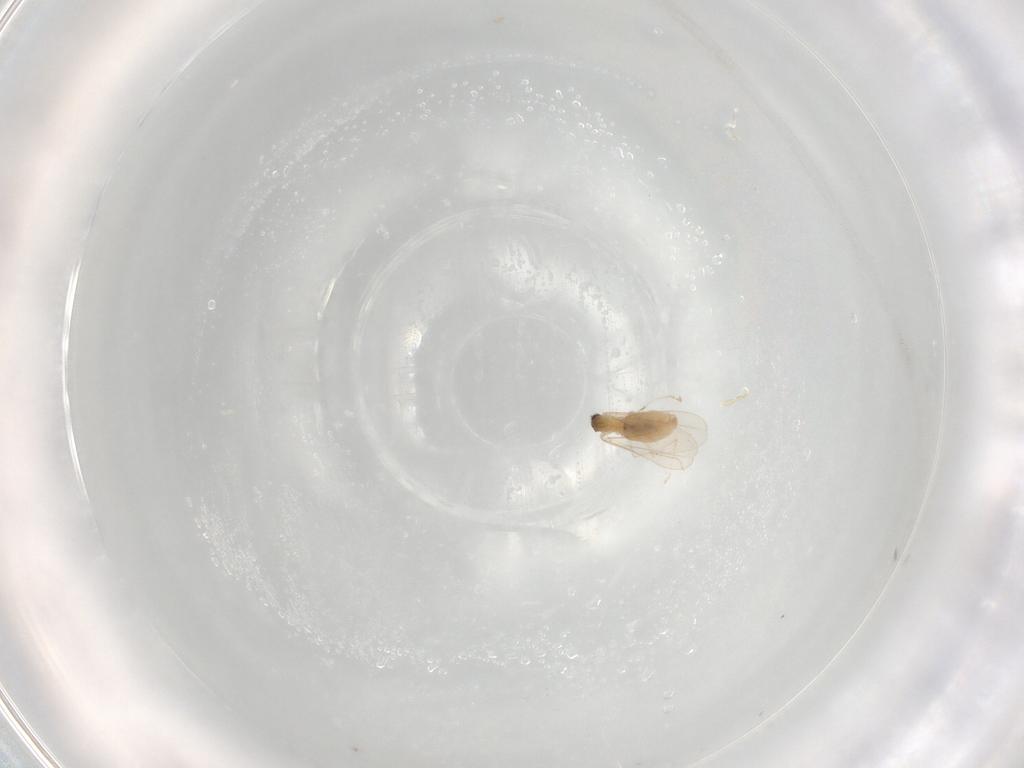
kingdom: Animalia
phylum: Arthropoda
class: Insecta
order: Diptera
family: Cecidomyiidae
